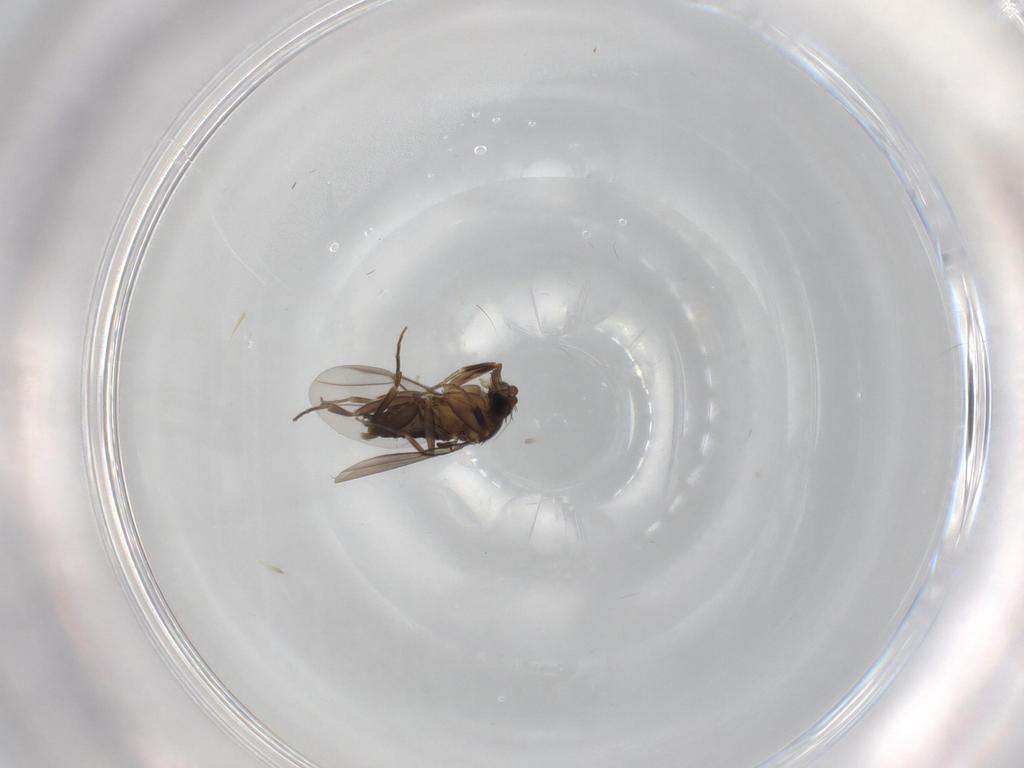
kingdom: Animalia
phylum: Arthropoda
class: Insecta
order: Diptera
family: Phoridae
